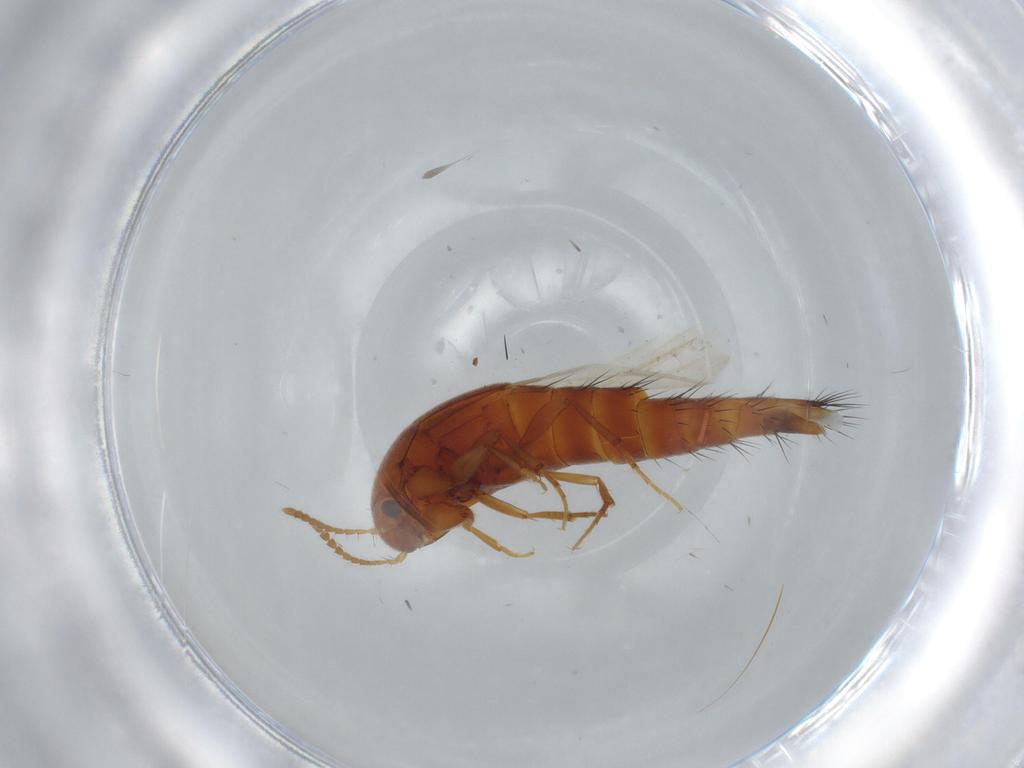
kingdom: Animalia
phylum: Arthropoda
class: Insecta
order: Coleoptera
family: Staphylinidae
